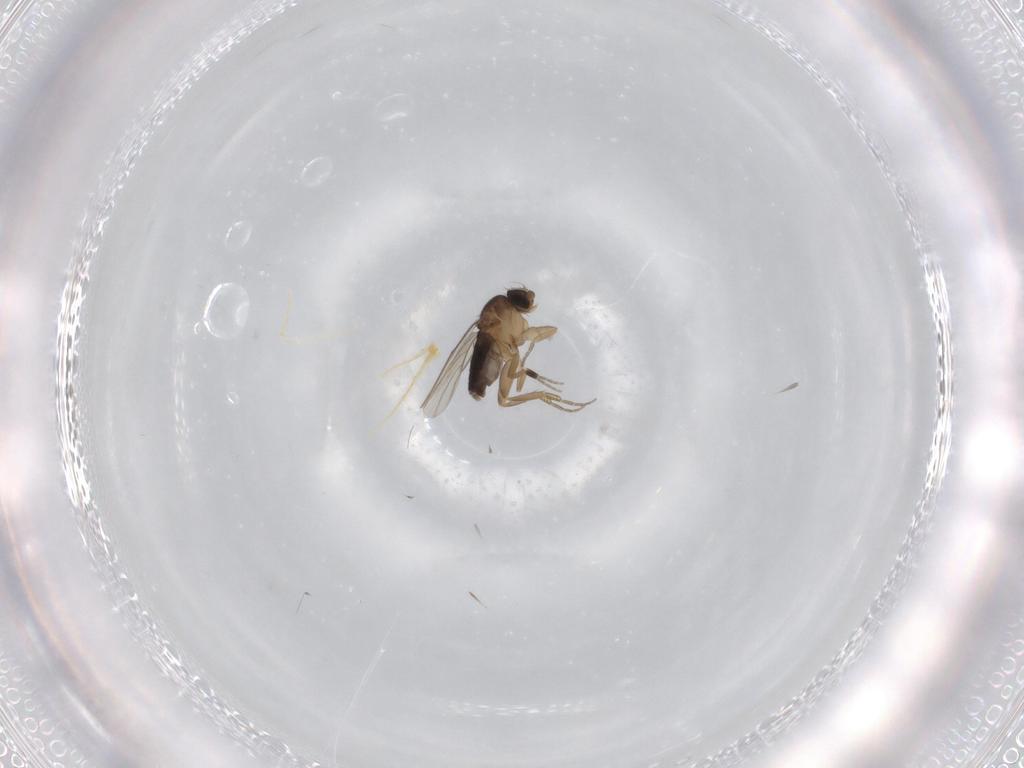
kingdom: Animalia
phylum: Arthropoda
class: Insecta
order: Diptera
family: Phoridae
